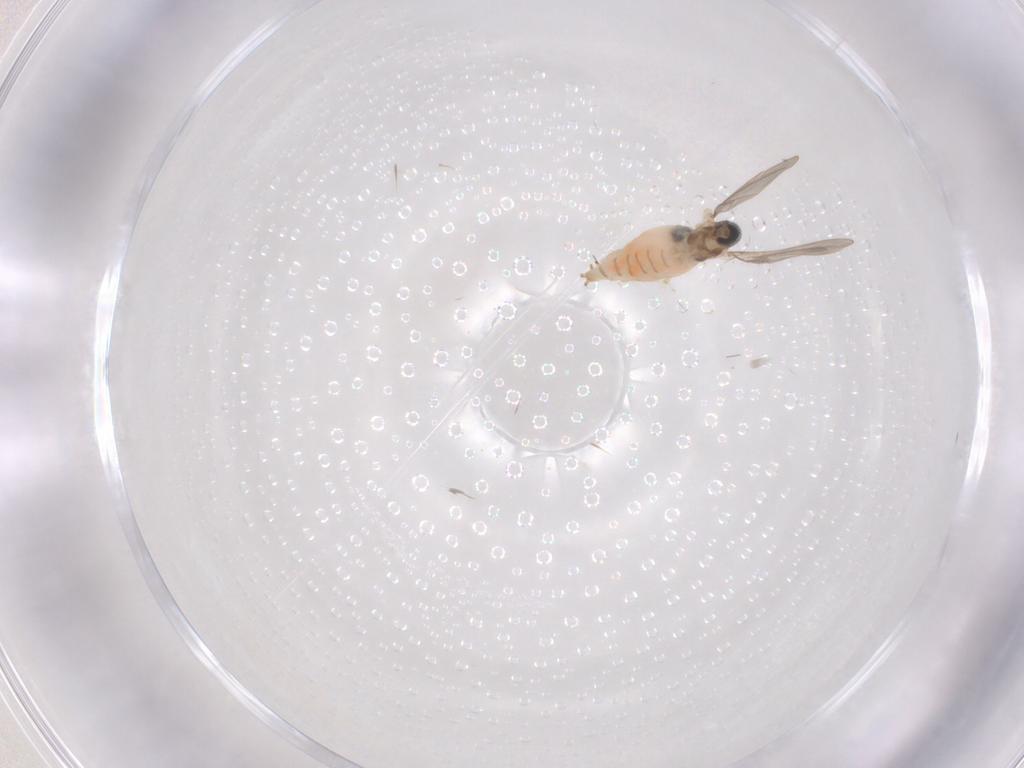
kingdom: Animalia
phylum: Arthropoda
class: Insecta
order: Diptera
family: Cecidomyiidae
